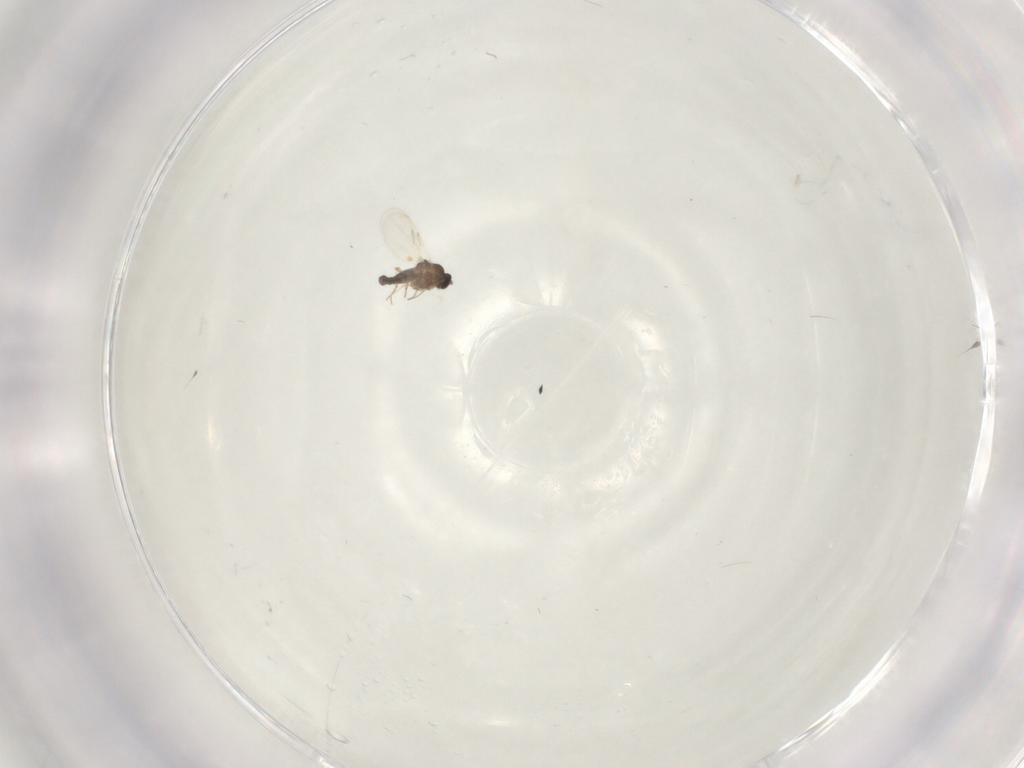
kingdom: Animalia
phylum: Arthropoda
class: Insecta
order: Diptera
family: Ceratopogonidae
